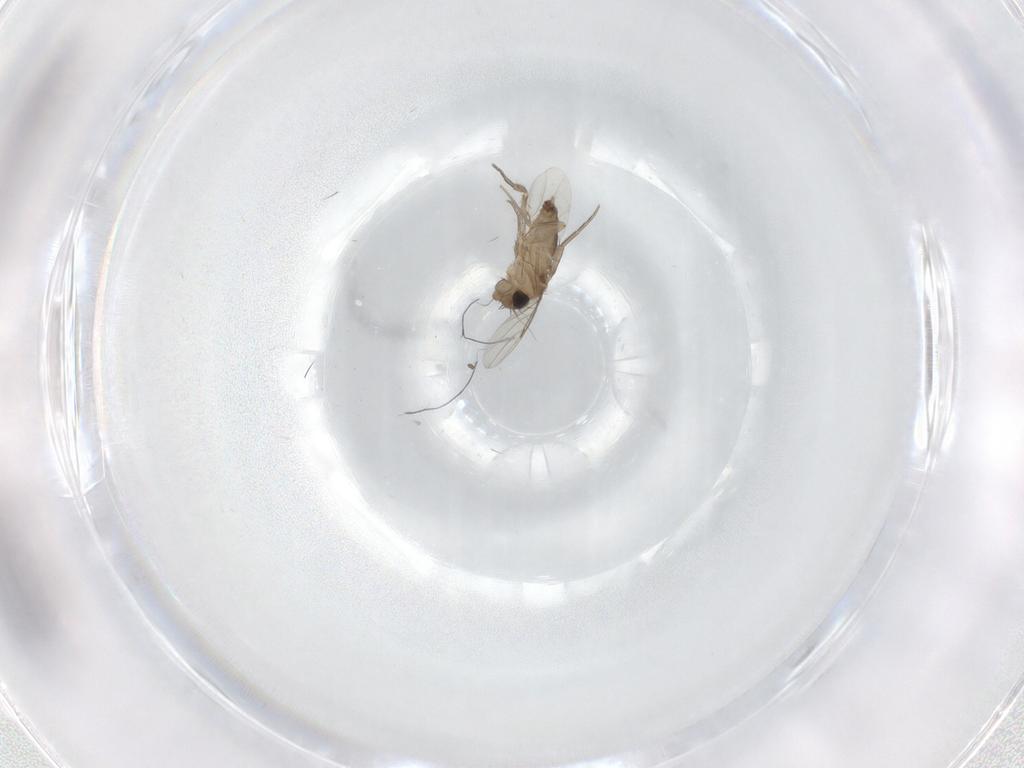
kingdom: Animalia
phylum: Arthropoda
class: Insecta
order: Diptera
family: Phoridae
